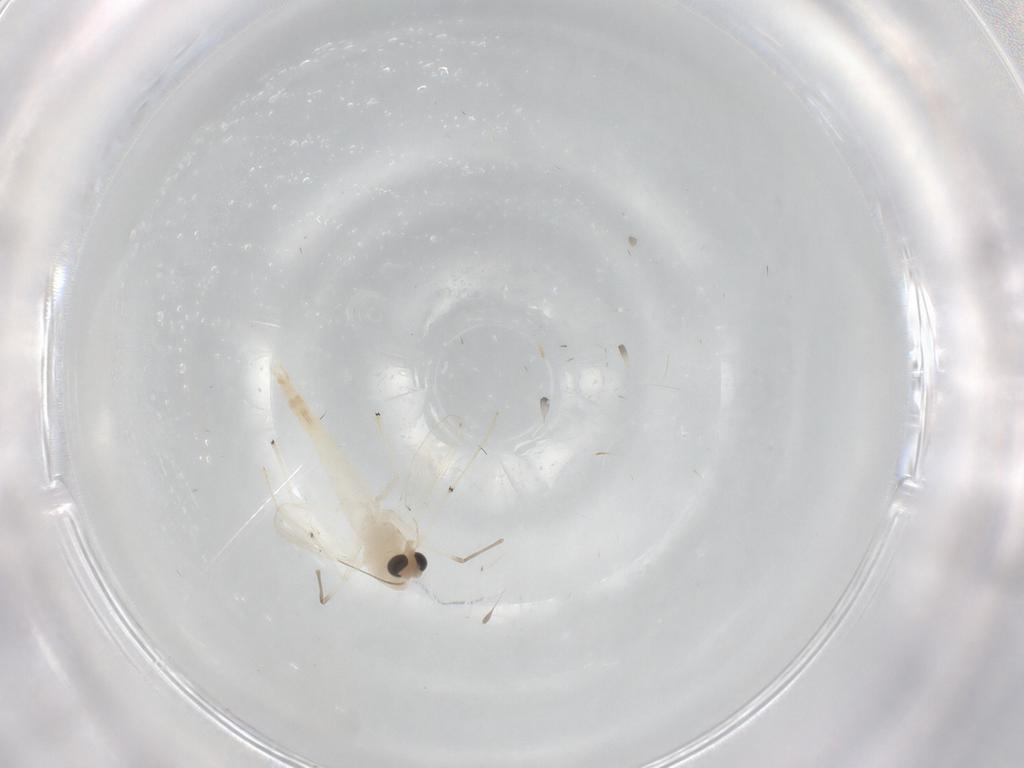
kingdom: Animalia
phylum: Arthropoda
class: Insecta
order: Diptera
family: Chironomidae
